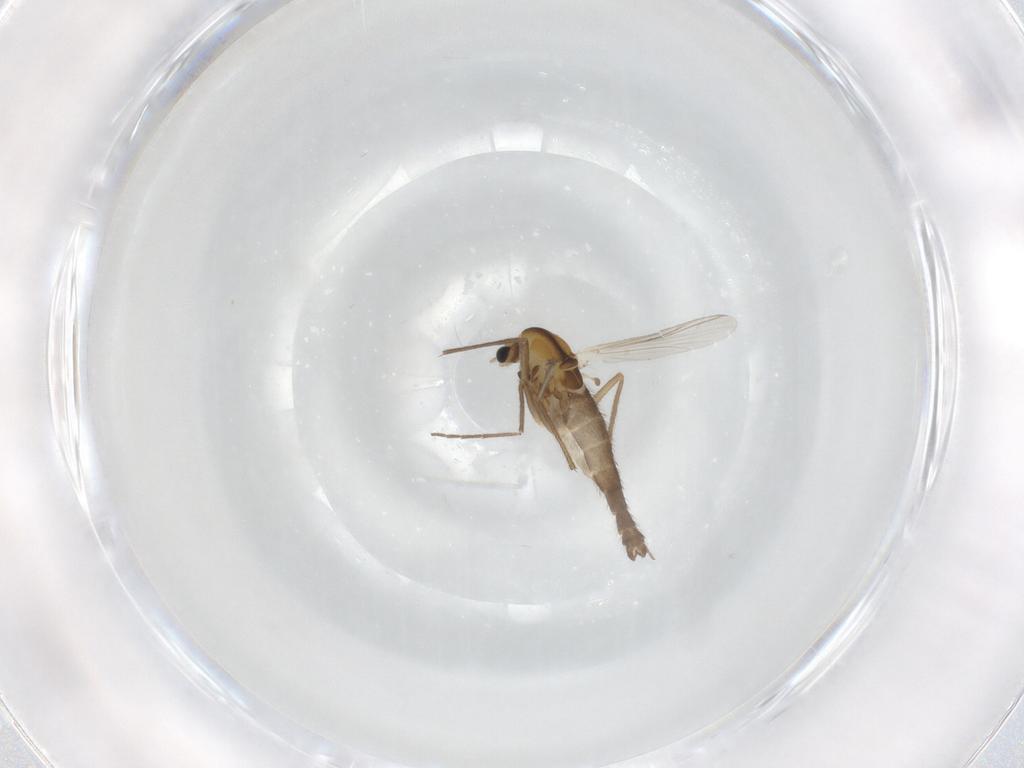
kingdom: Animalia
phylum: Arthropoda
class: Insecta
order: Diptera
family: Chironomidae
